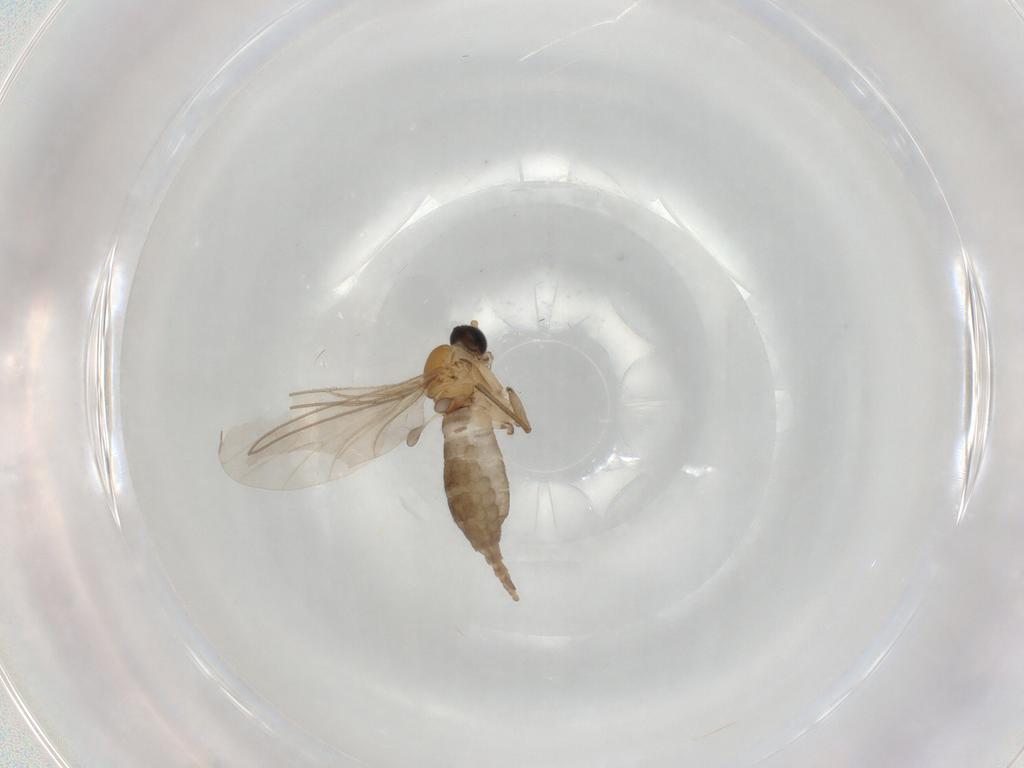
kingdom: Animalia
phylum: Arthropoda
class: Insecta
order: Diptera
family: Sciaridae
